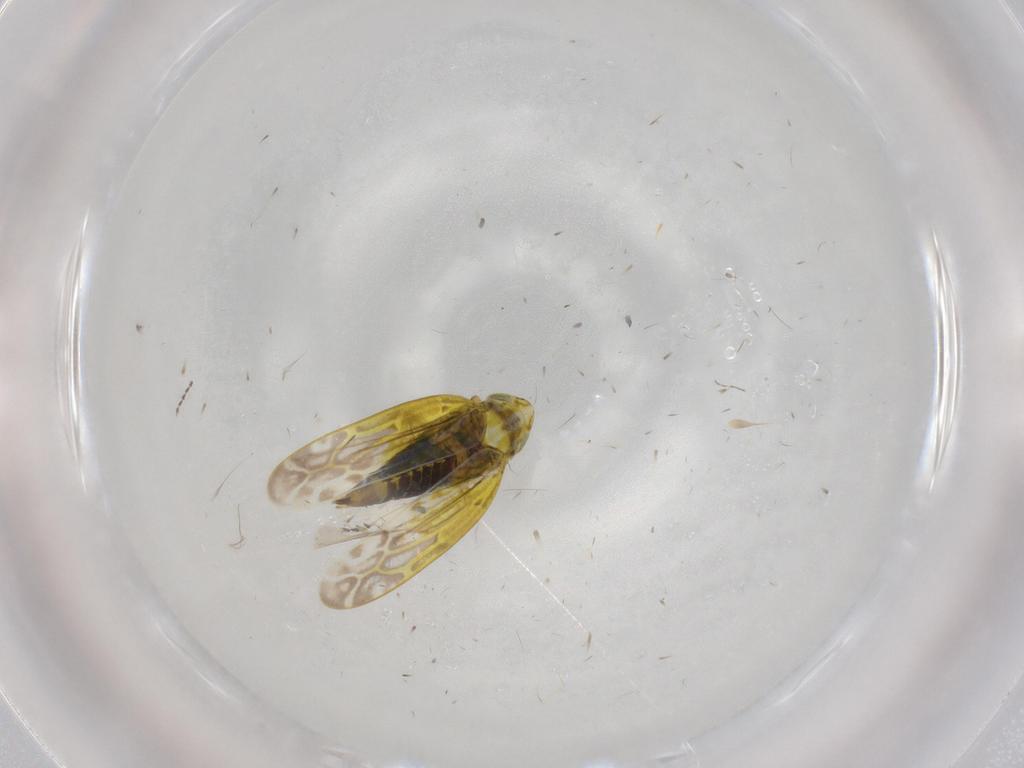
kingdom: Animalia
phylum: Arthropoda
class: Insecta
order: Hemiptera
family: Cicadellidae
